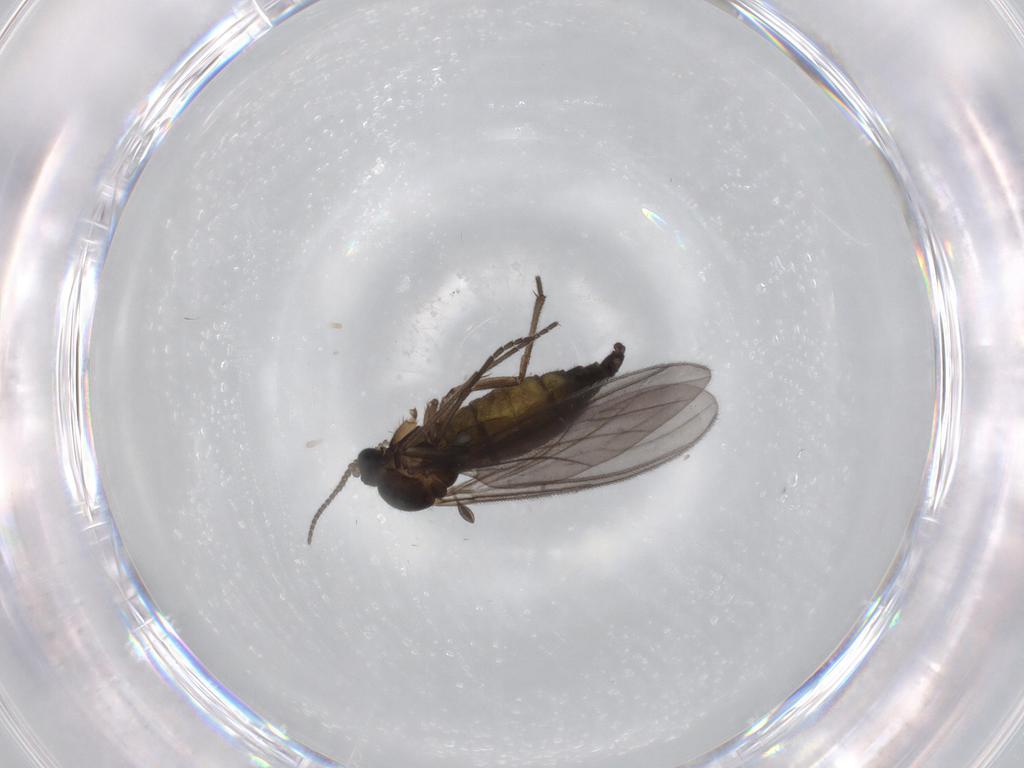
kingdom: Animalia
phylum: Arthropoda
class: Insecta
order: Diptera
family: Sciaridae
